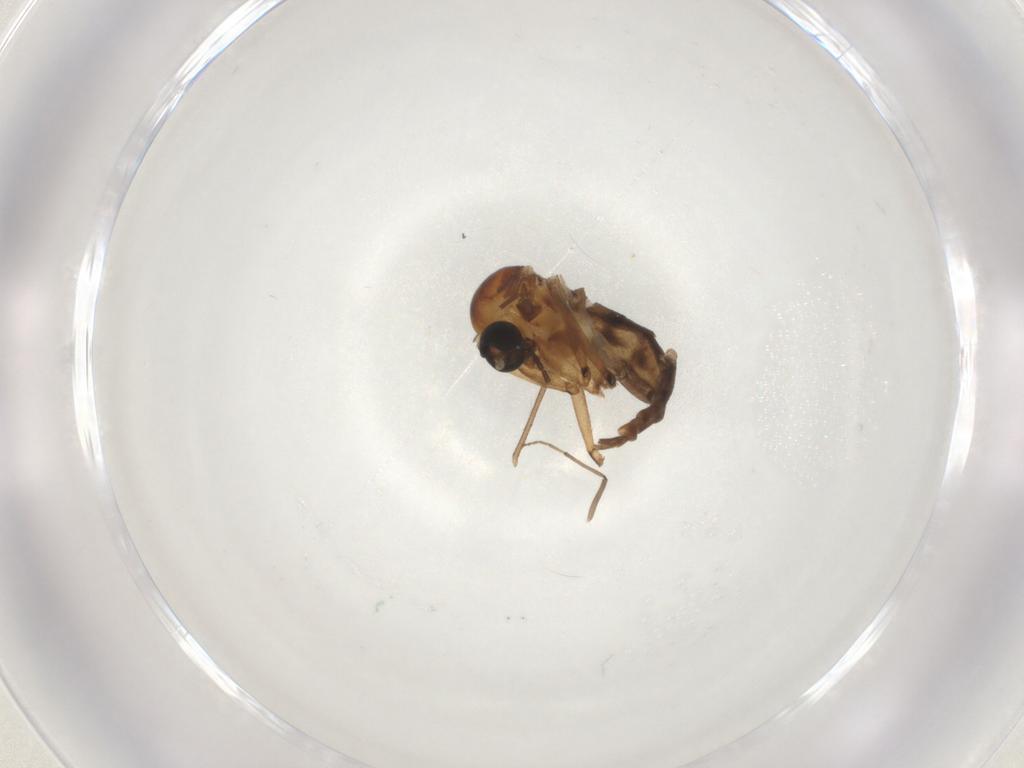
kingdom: Animalia
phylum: Arthropoda
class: Insecta
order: Diptera
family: Sciaridae
